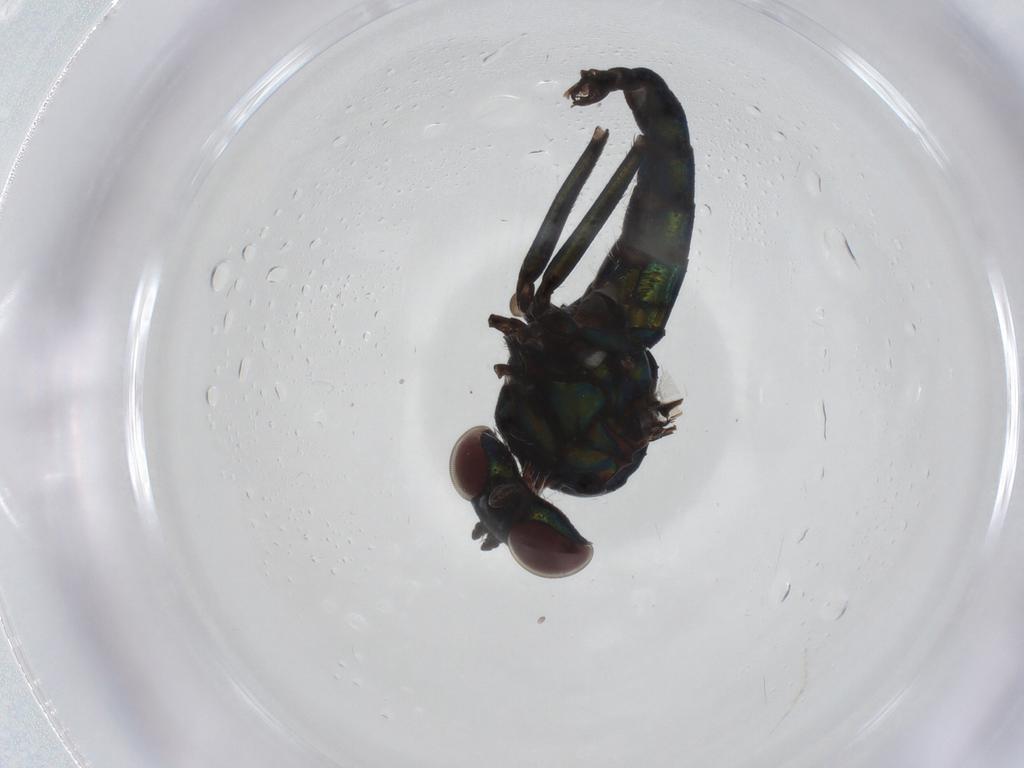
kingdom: Animalia
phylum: Arthropoda
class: Insecta
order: Diptera
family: Dolichopodidae
